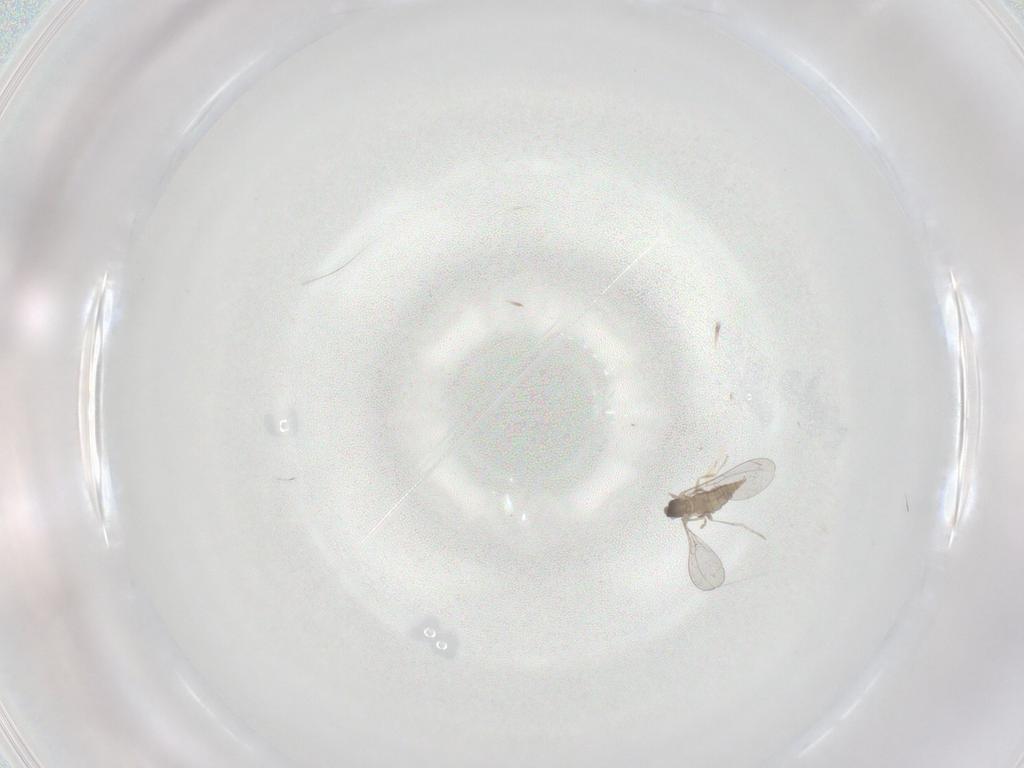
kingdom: Animalia
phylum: Arthropoda
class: Insecta
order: Diptera
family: Cecidomyiidae
